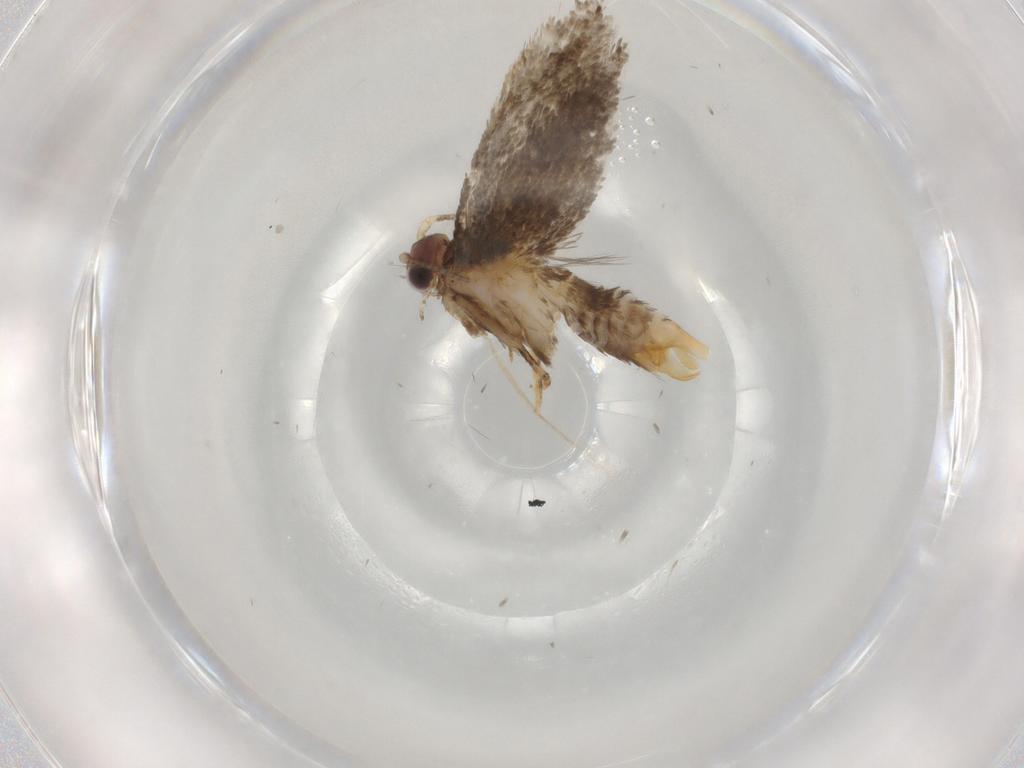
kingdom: Animalia
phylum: Arthropoda
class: Insecta
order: Lepidoptera
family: Tineidae
